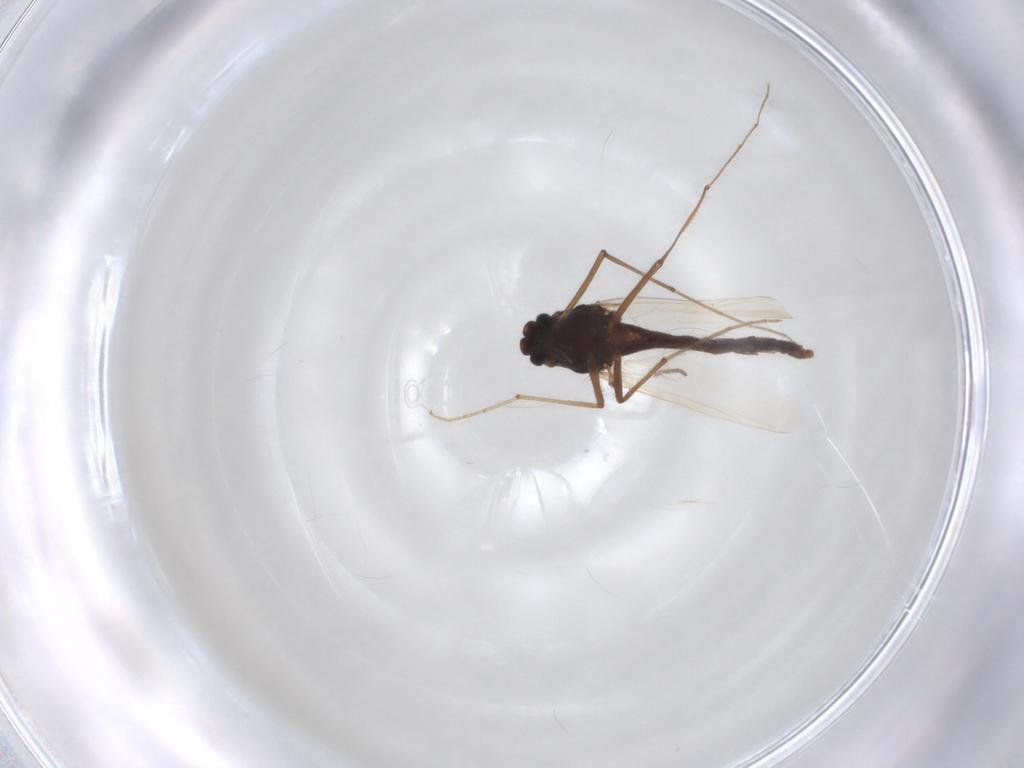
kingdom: Animalia
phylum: Arthropoda
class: Insecta
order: Diptera
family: Chironomidae
